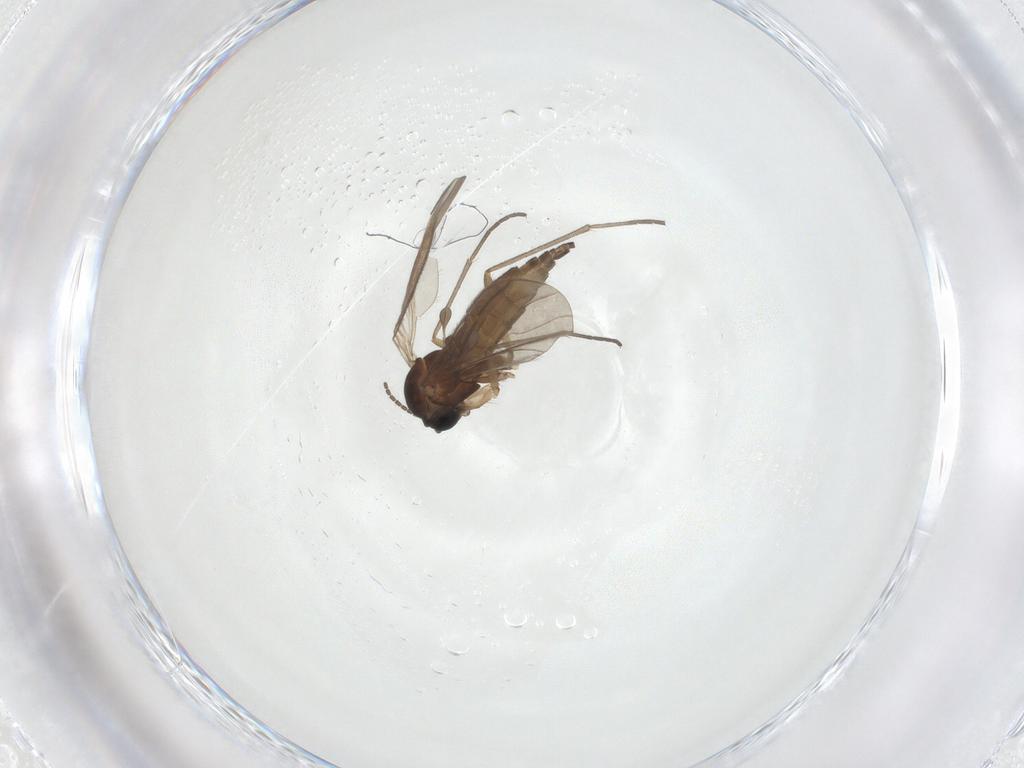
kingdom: Animalia
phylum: Arthropoda
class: Insecta
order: Diptera
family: Sciaridae
